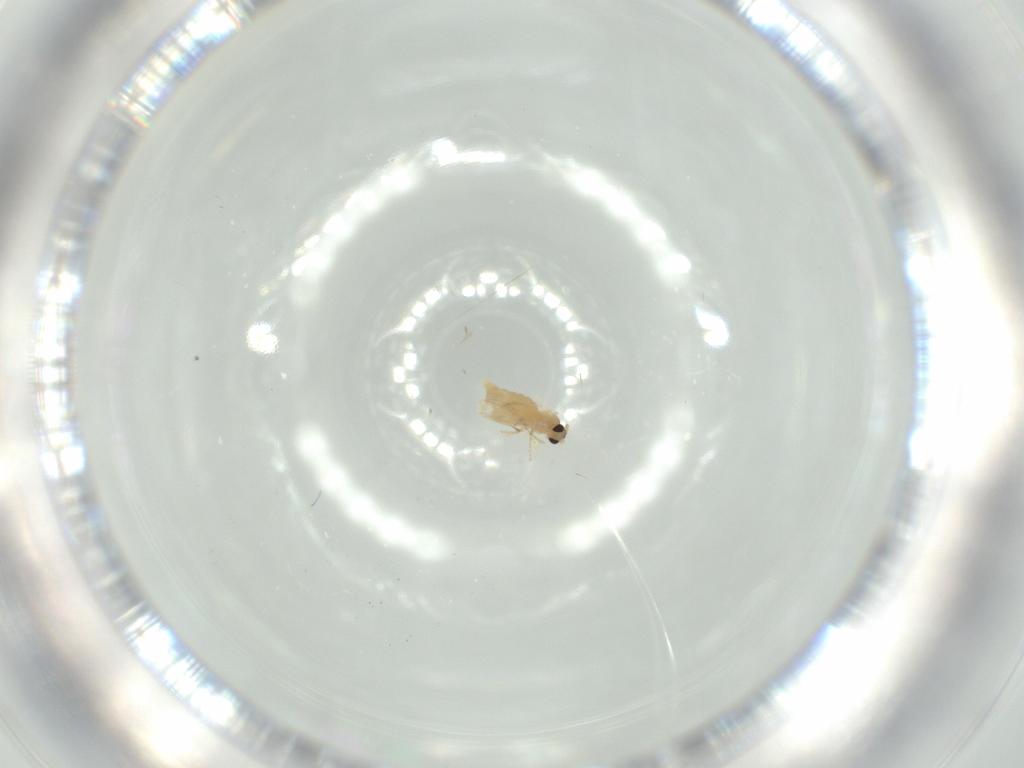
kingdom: Animalia
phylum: Arthropoda
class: Insecta
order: Diptera
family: Cecidomyiidae
